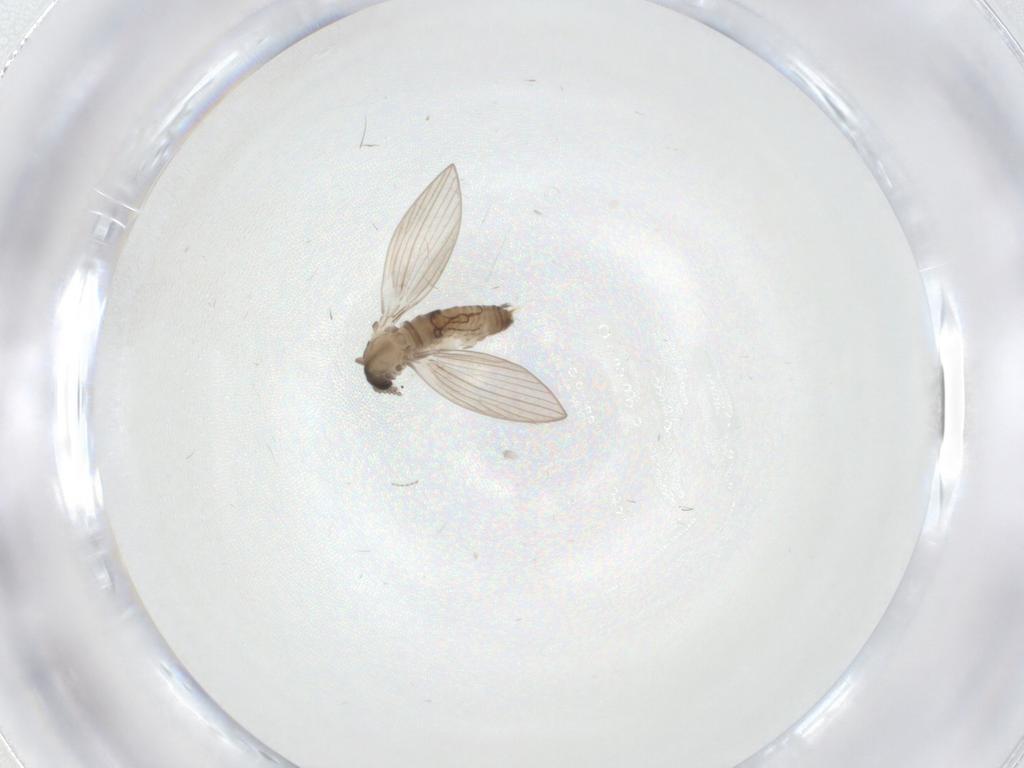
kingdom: Animalia
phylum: Arthropoda
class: Insecta
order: Diptera
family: Psychodidae
